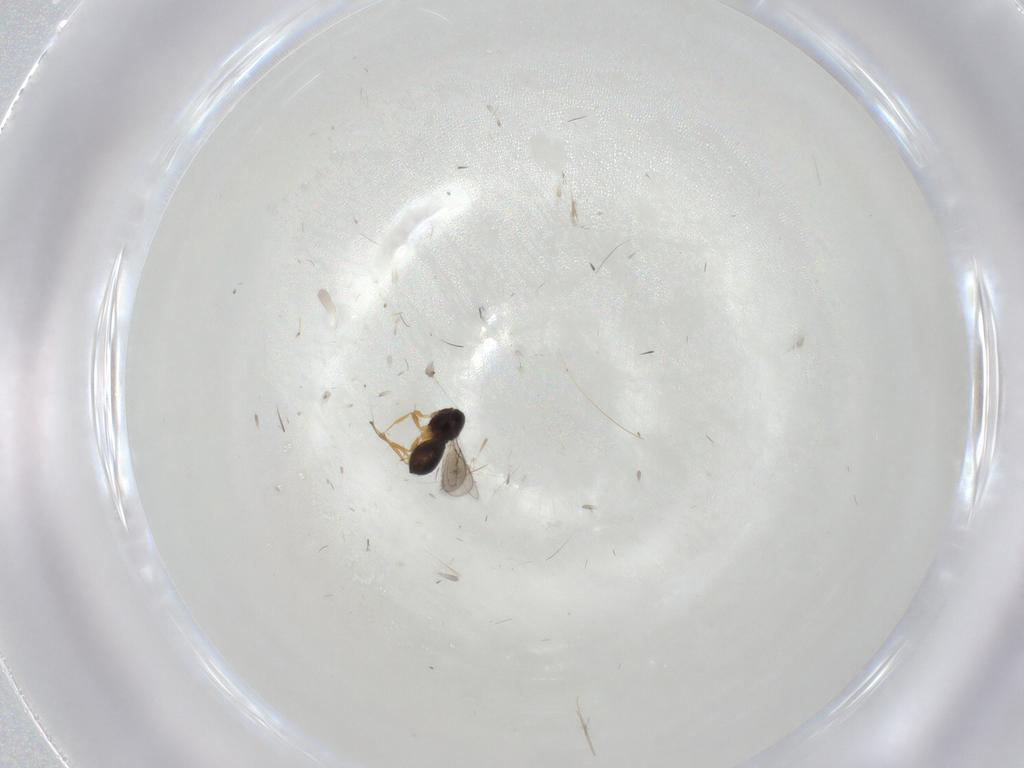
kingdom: Animalia
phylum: Arthropoda
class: Insecta
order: Hymenoptera
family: Scelionidae
